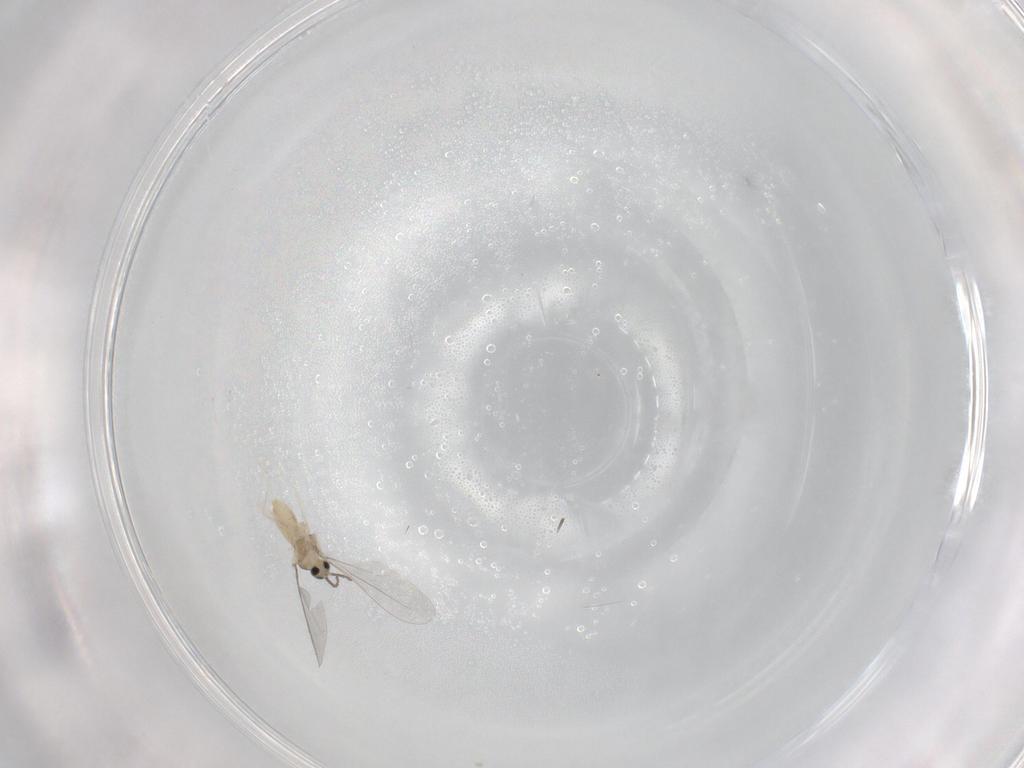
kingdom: Animalia
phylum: Arthropoda
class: Insecta
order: Diptera
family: Cecidomyiidae
